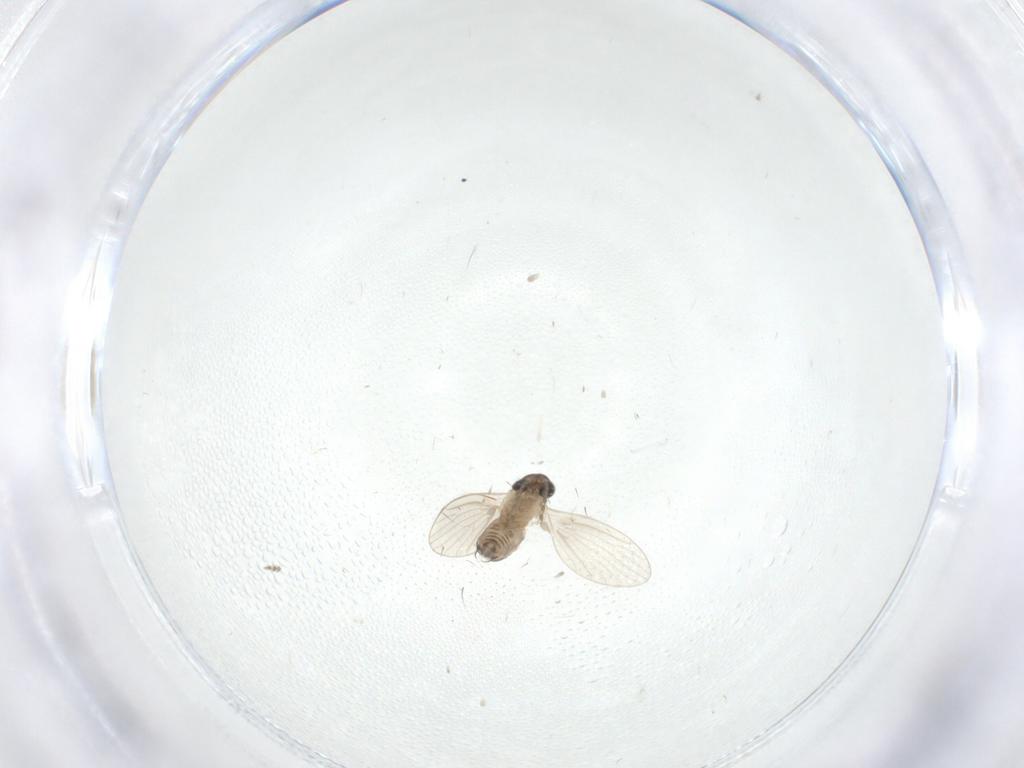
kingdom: Animalia
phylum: Arthropoda
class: Insecta
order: Diptera
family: Psychodidae
